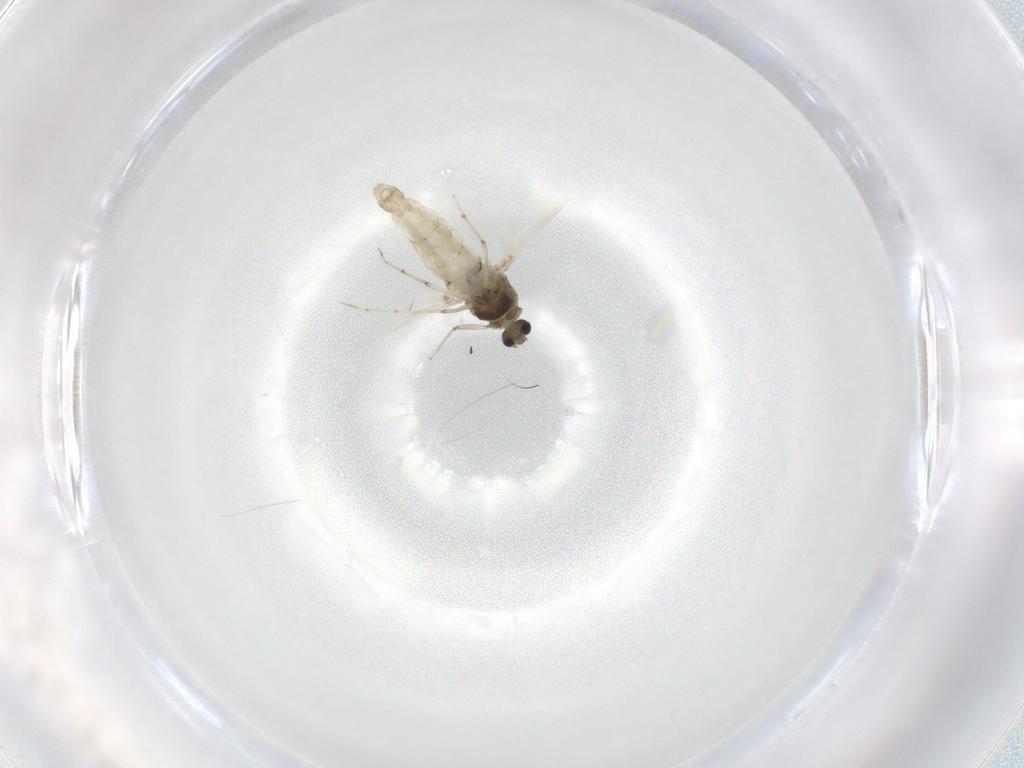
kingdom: Animalia
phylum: Arthropoda
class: Insecta
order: Diptera
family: Chironomidae
